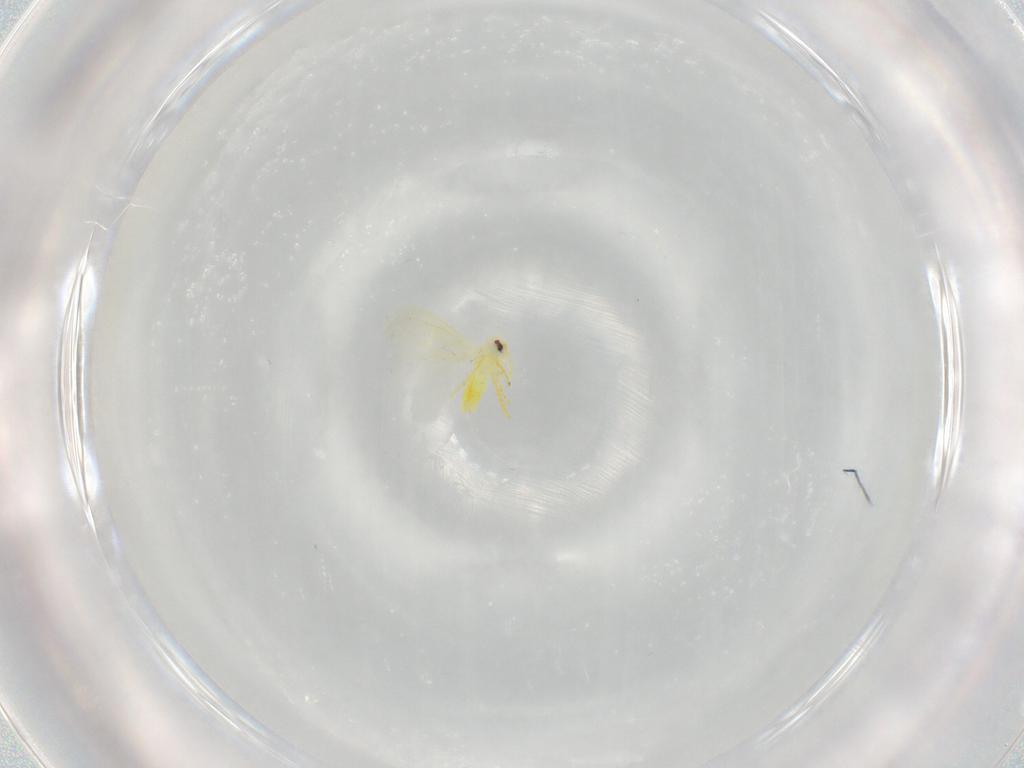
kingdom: Animalia
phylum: Arthropoda
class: Insecta
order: Hemiptera
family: Aleyrodidae
